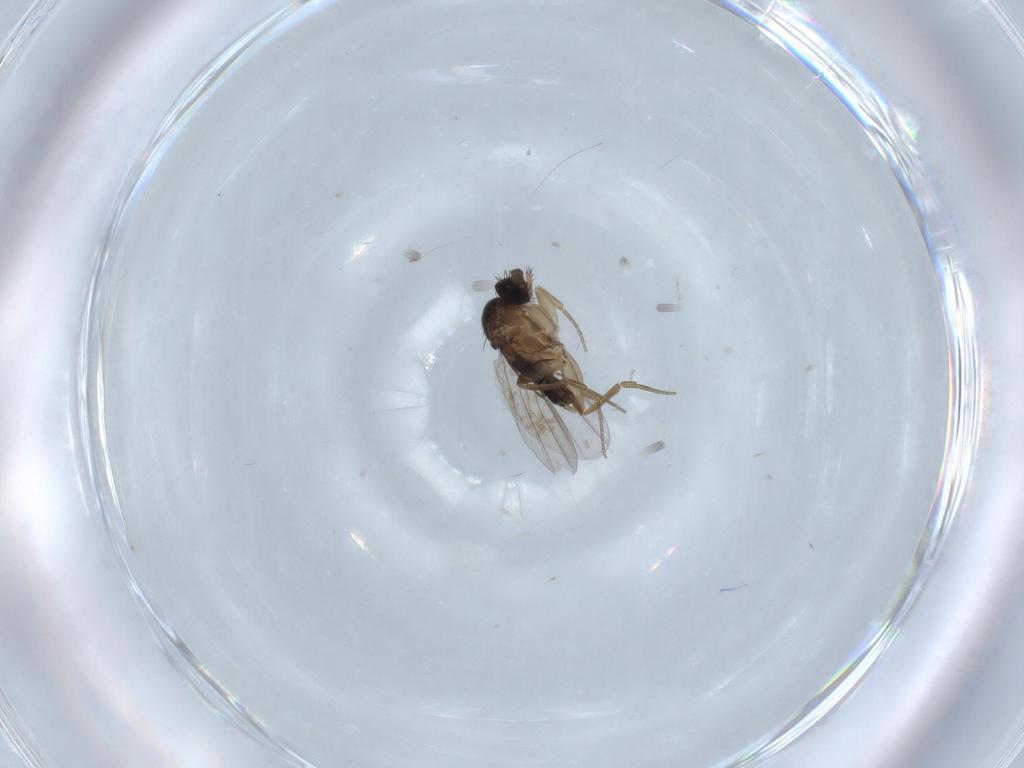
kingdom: Animalia
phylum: Arthropoda
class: Insecta
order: Diptera
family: Phoridae
